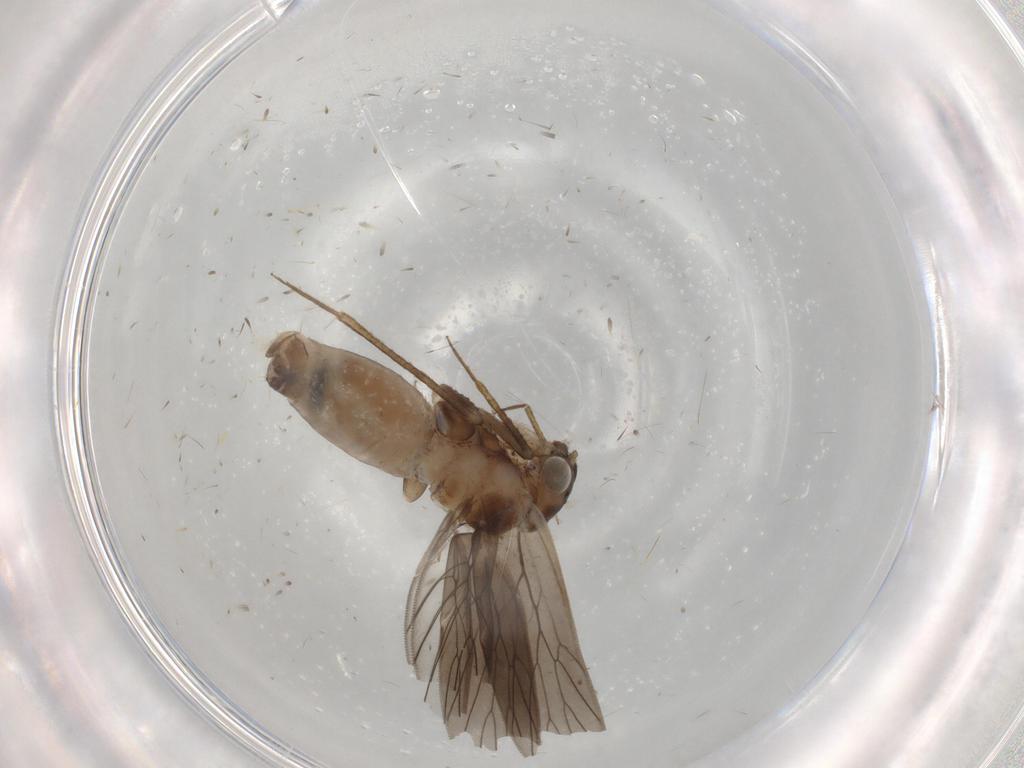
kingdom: Animalia
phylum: Arthropoda
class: Insecta
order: Psocodea
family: Lepidopsocidae
